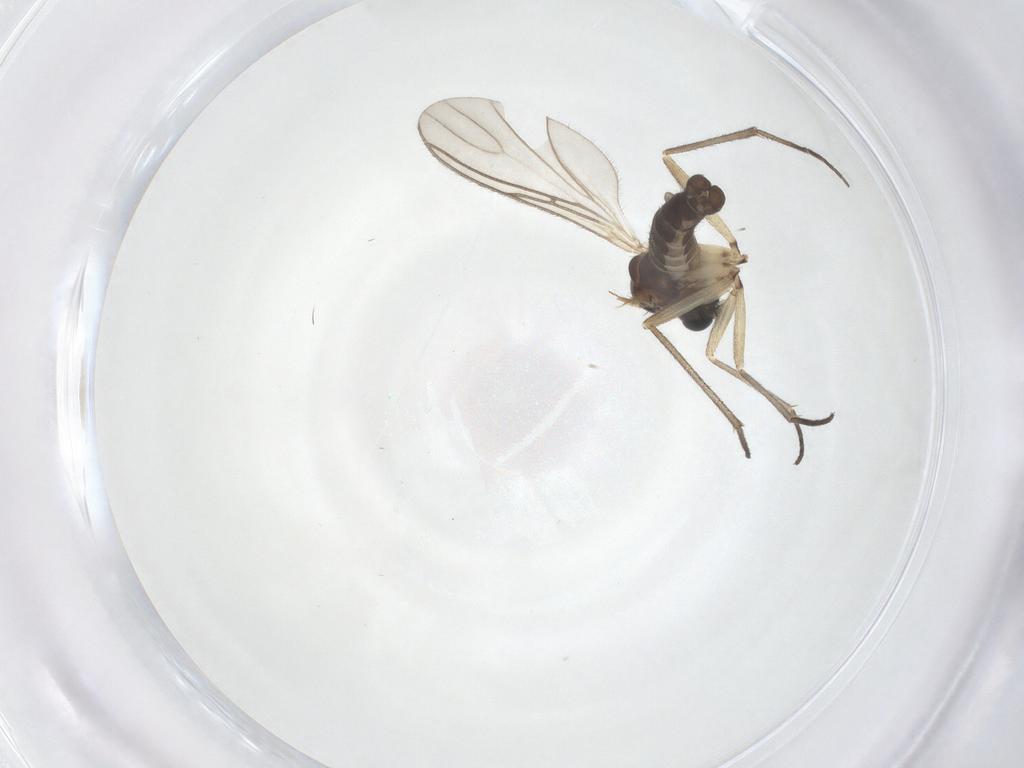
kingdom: Animalia
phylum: Arthropoda
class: Insecta
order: Diptera
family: Sciaridae
